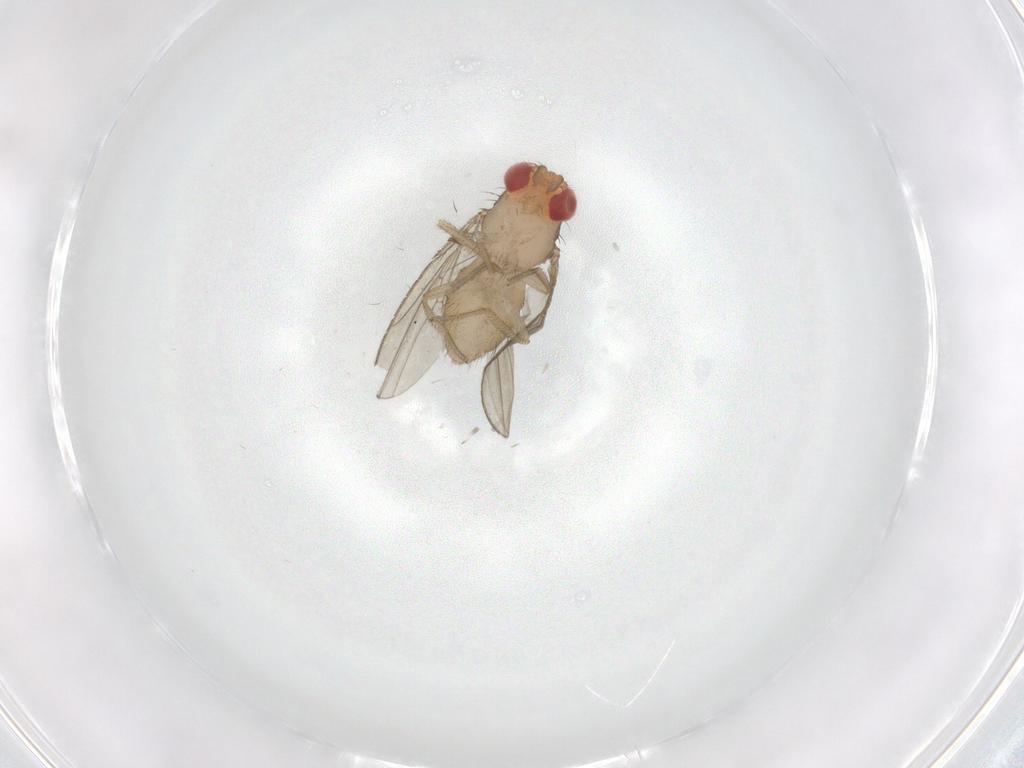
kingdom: Animalia
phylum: Arthropoda
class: Insecta
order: Diptera
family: Drosophilidae
